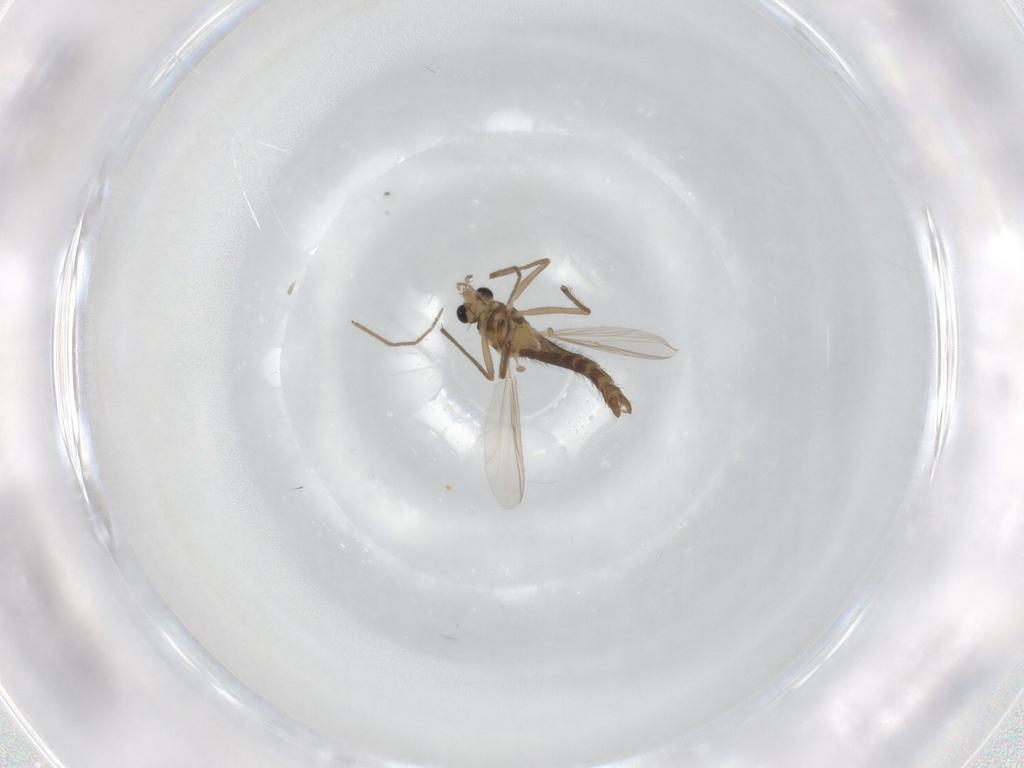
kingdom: Animalia
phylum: Arthropoda
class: Insecta
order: Diptera
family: Chironomidae
